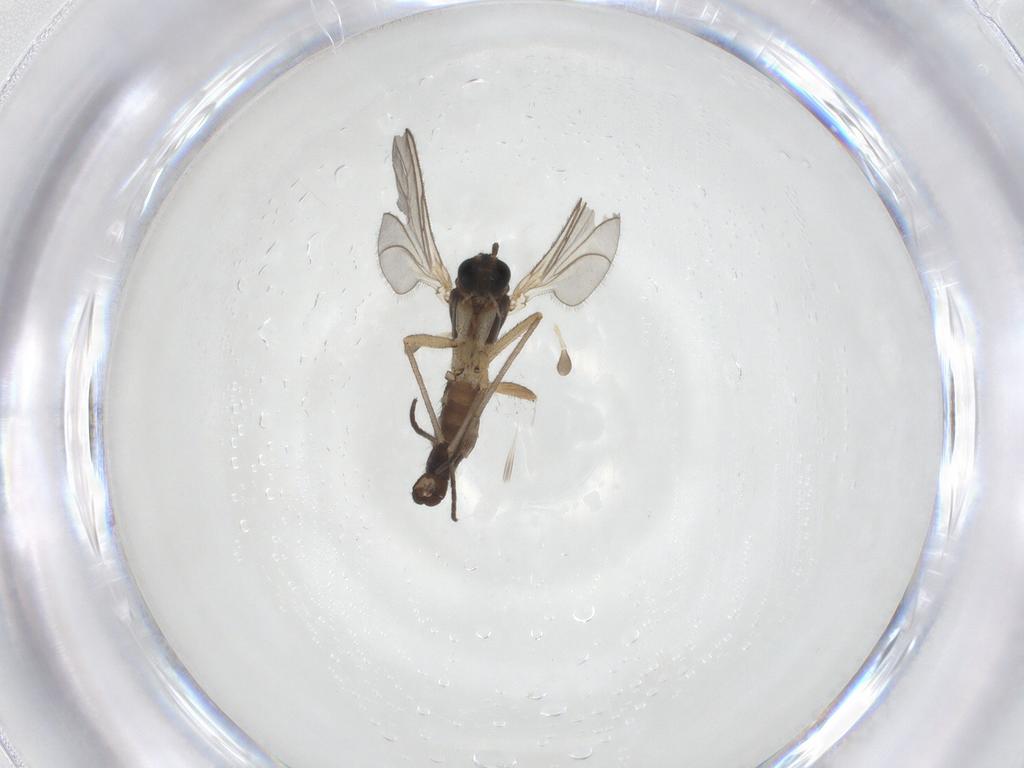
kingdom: Animalia
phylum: Arthropoda
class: Insecta
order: Diptera
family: Sciaridae
